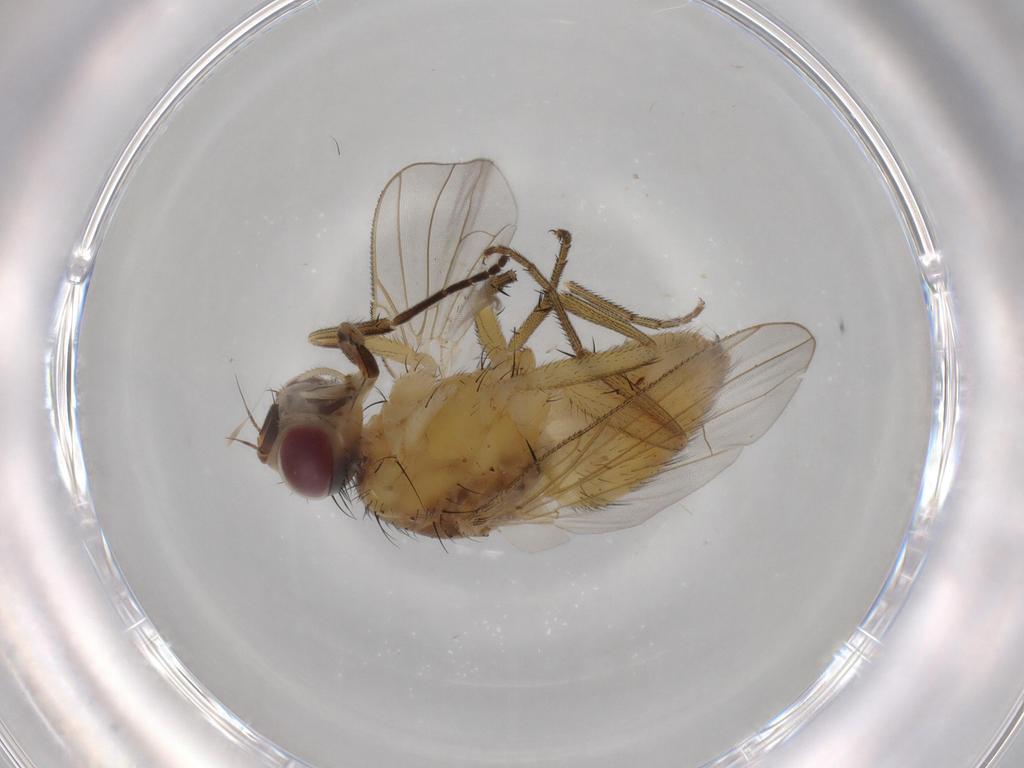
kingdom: Animalia
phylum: Arthropoda
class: Insecta
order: Diptera
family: Muscidae
